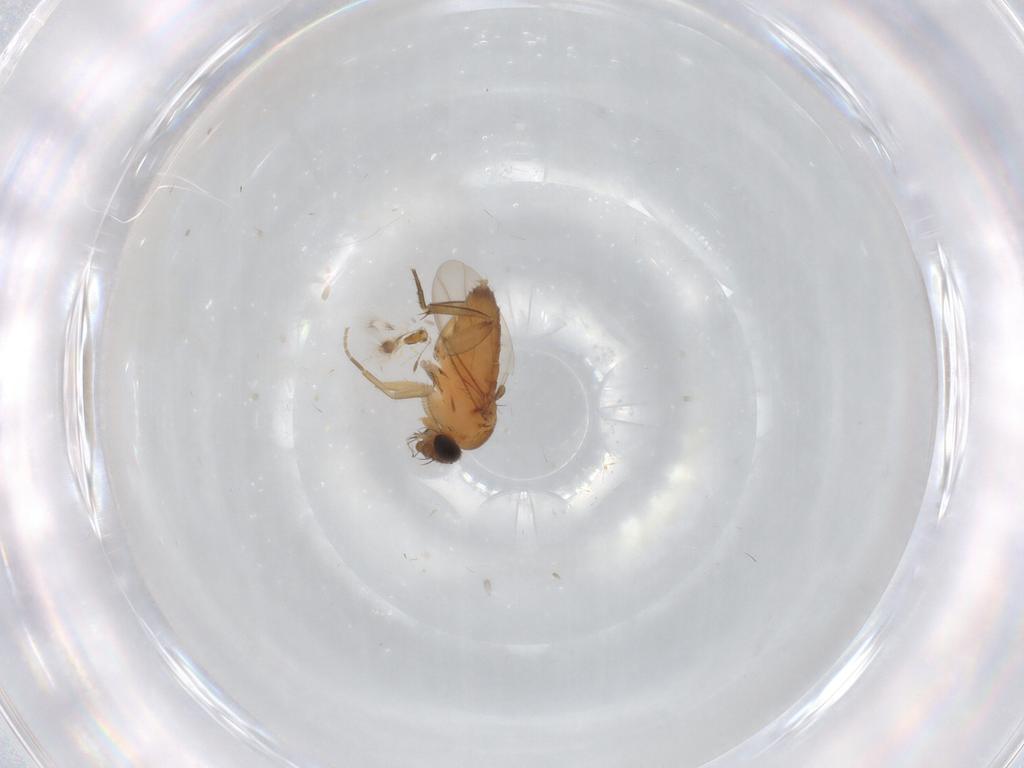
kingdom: Animalia
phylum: Arthropoda
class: Insecta
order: Diptera
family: Phoridae
